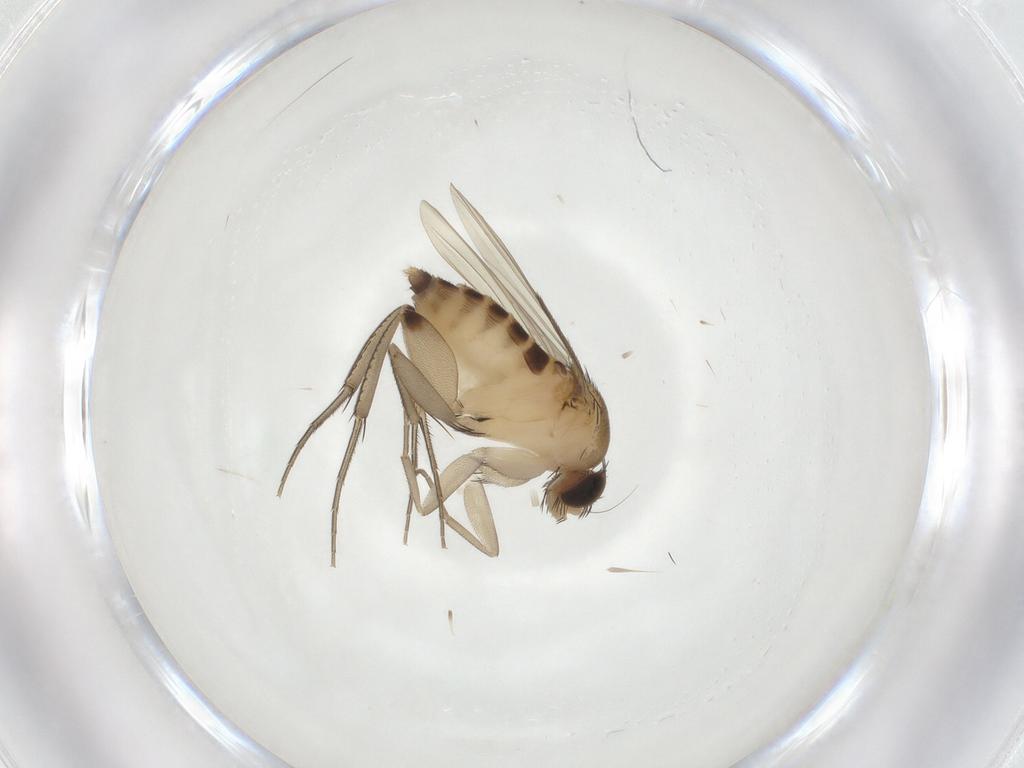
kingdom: Animalia
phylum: Arthropoda
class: Insecta
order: Diptera
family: Phoridae
